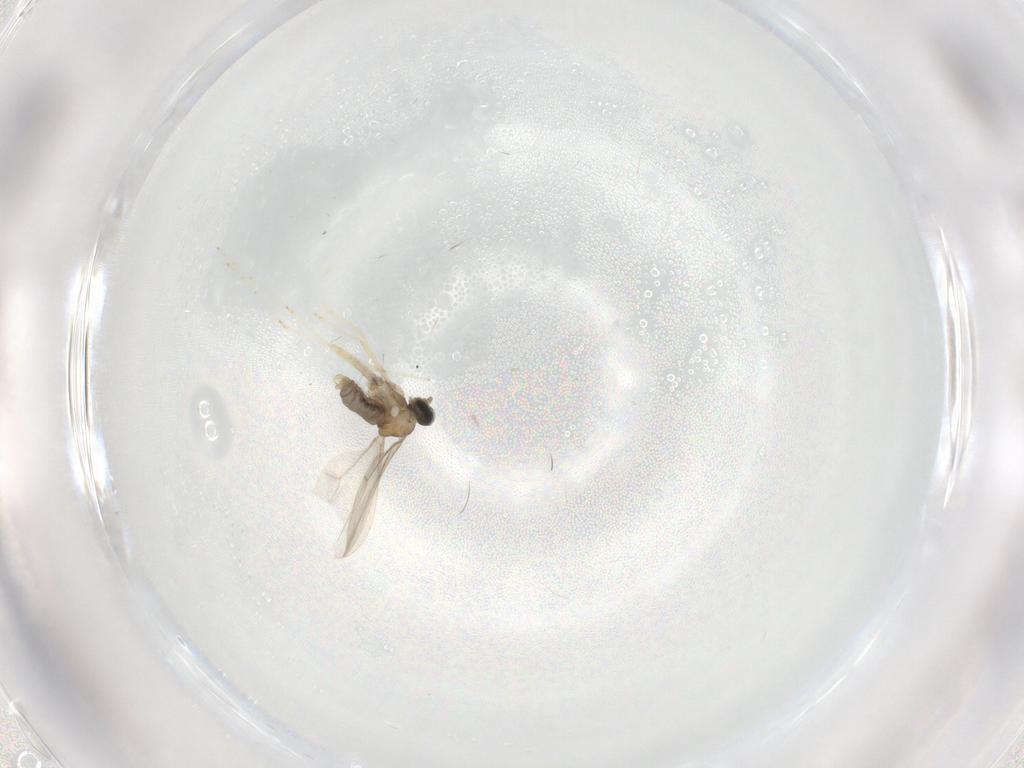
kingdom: Animalia
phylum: Arthropoda
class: Insecta
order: Diptera
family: Cecidomyiidae
